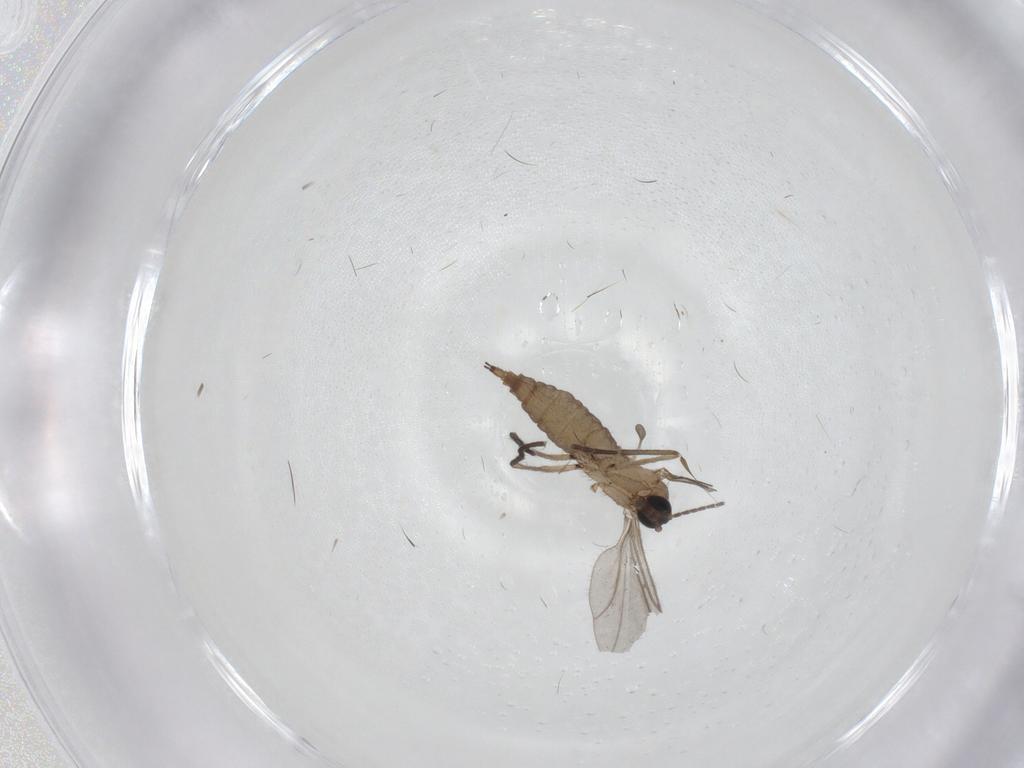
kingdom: Animalia
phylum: Arthropoda
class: Insecta
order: Diptera
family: Sciaridae
